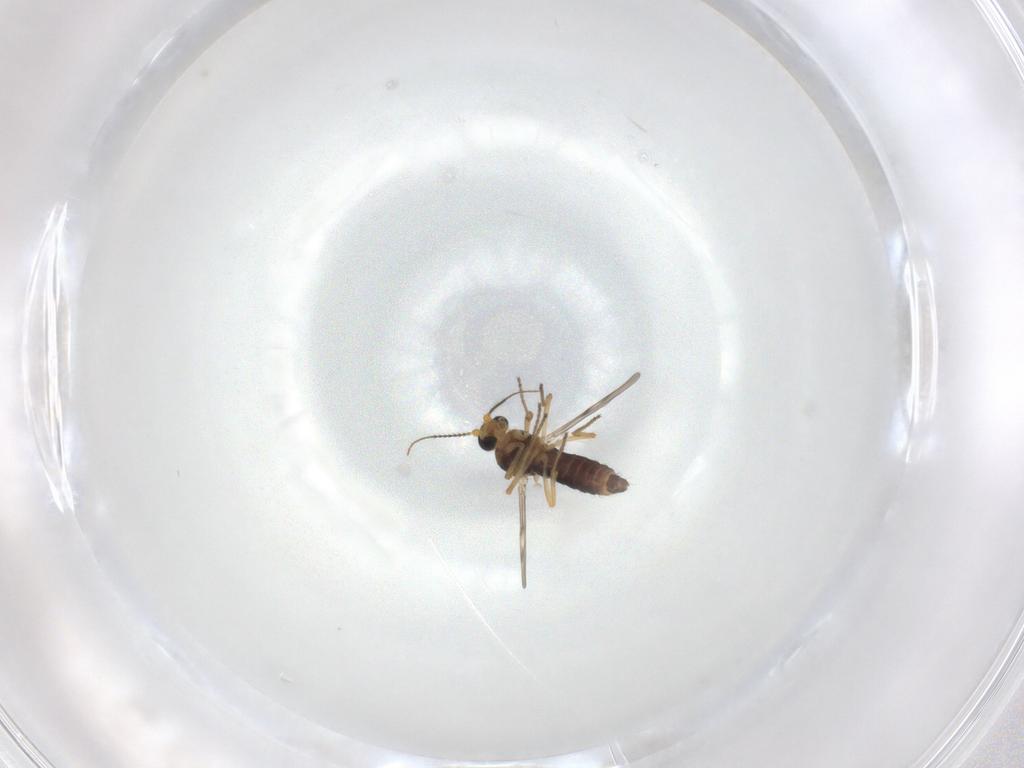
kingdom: Animalia
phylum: Arthropoda
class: Insecta
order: Diptera
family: Ceratopogonidae
